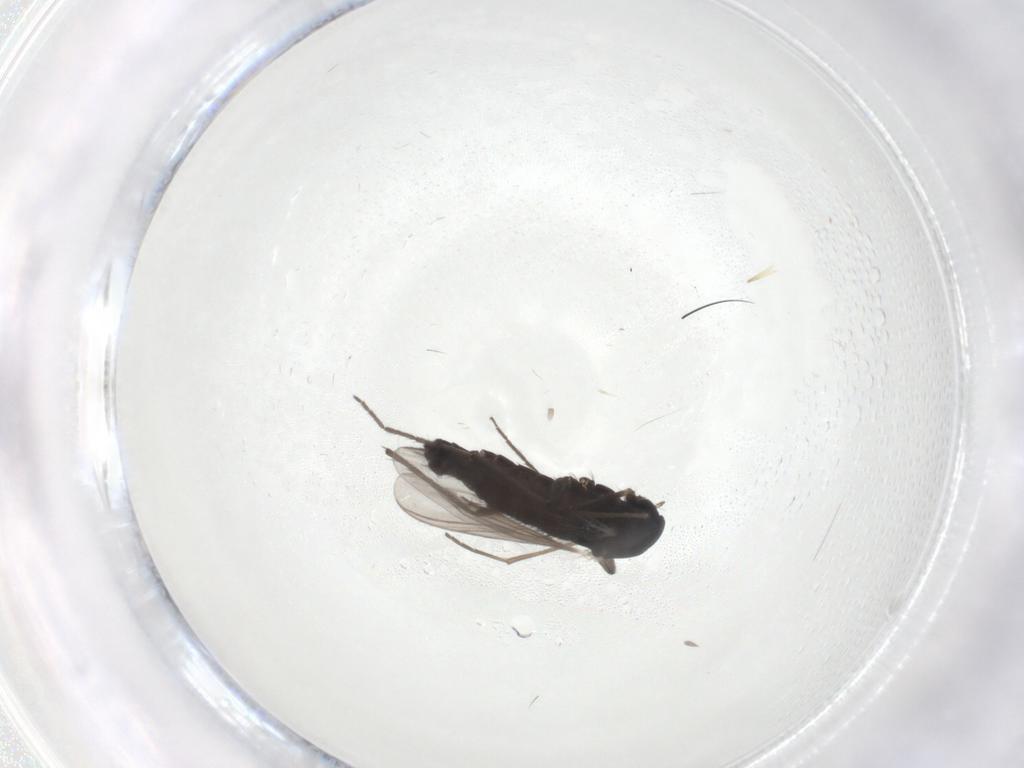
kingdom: Animalia
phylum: Arthropoda
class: Insecta
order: Diptera
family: Chironomidae
